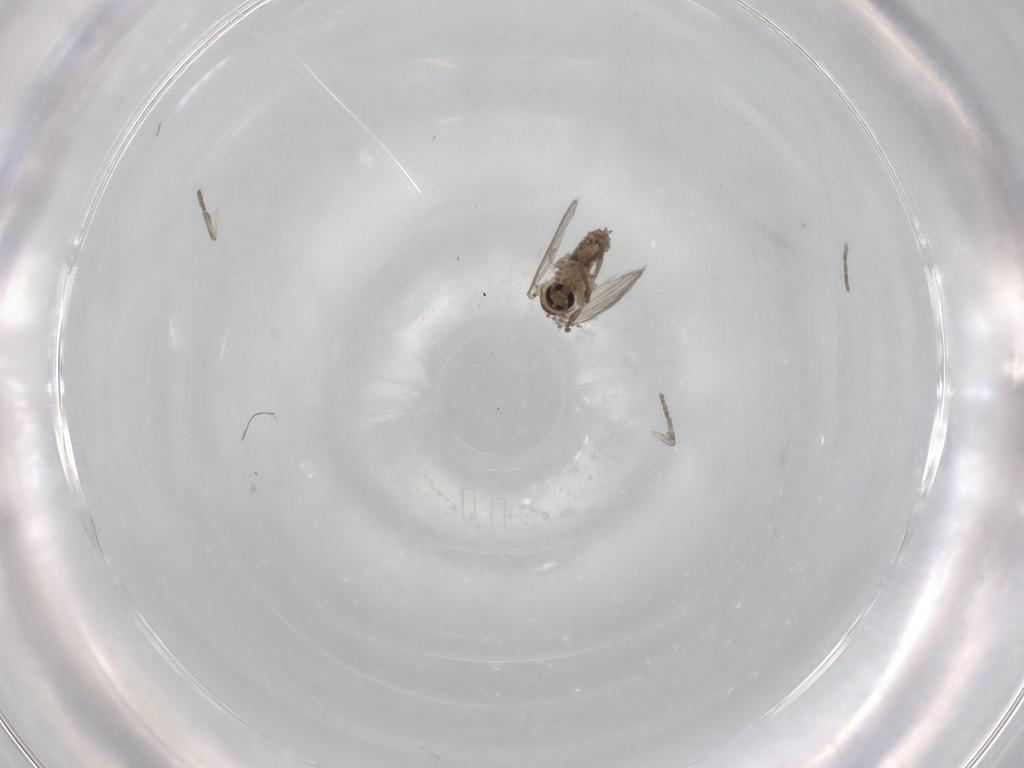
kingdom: Animalia
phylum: Arthropoda
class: Insecta
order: Diptera
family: Psychodidae
